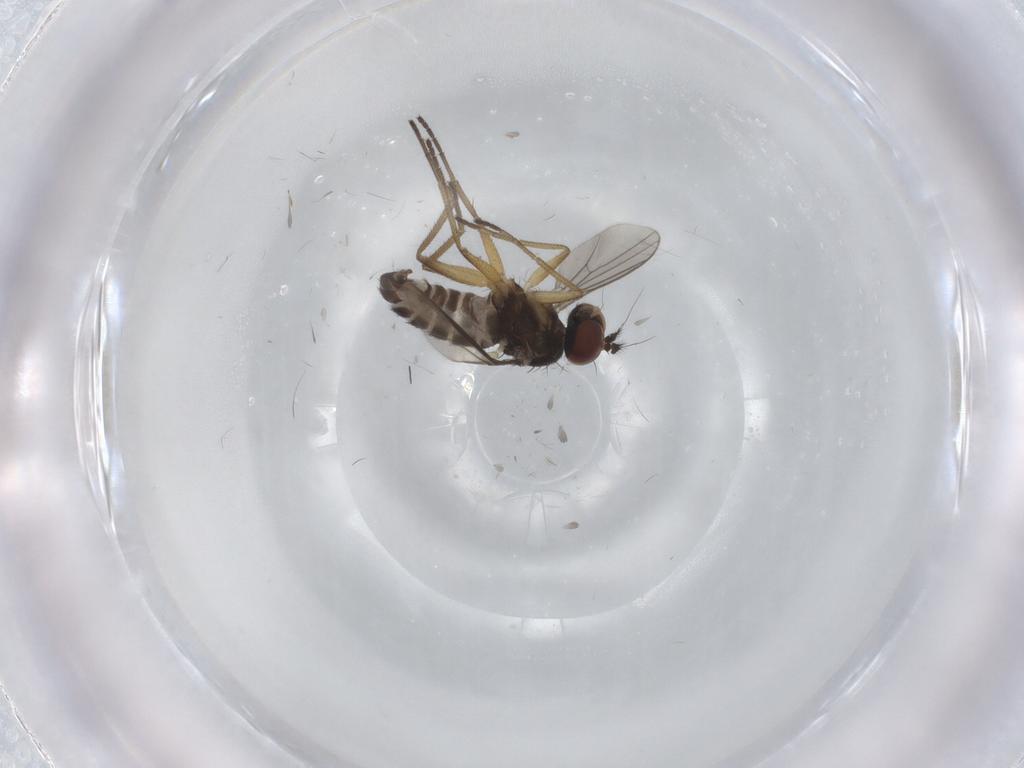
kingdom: Animalia
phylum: Arthropoda
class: Insecta
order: Diptera
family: Dolichopodidae
